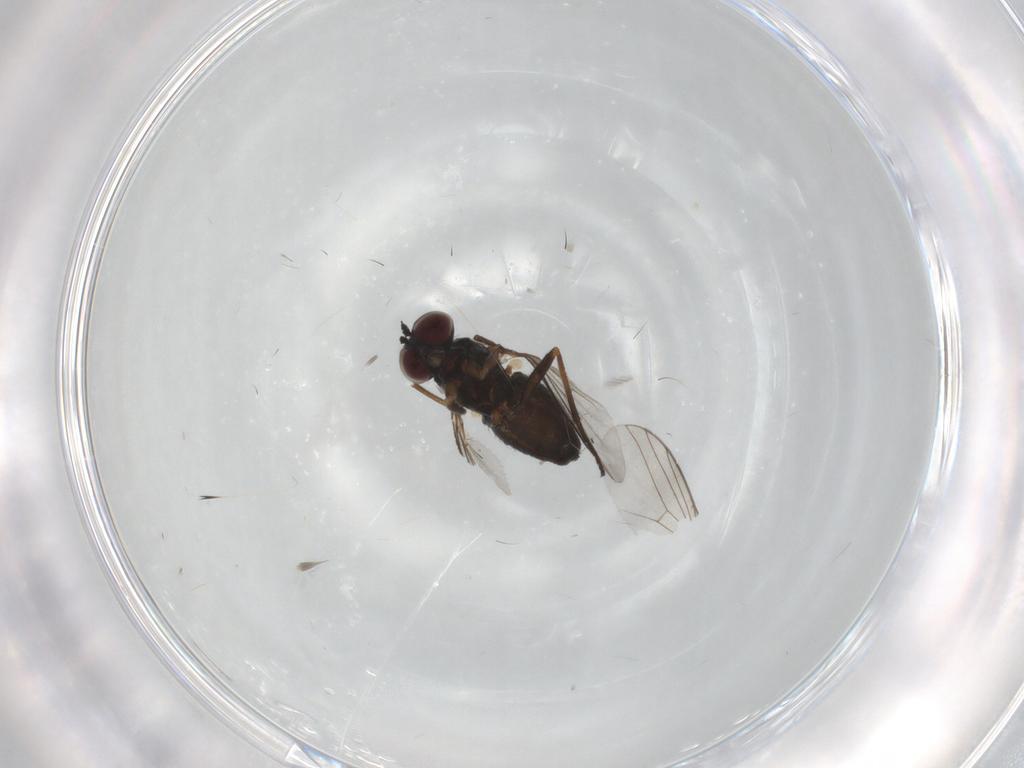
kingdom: Animalia
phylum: Arthropoda
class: Insecta
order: Diptera
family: Dolichopodidae
